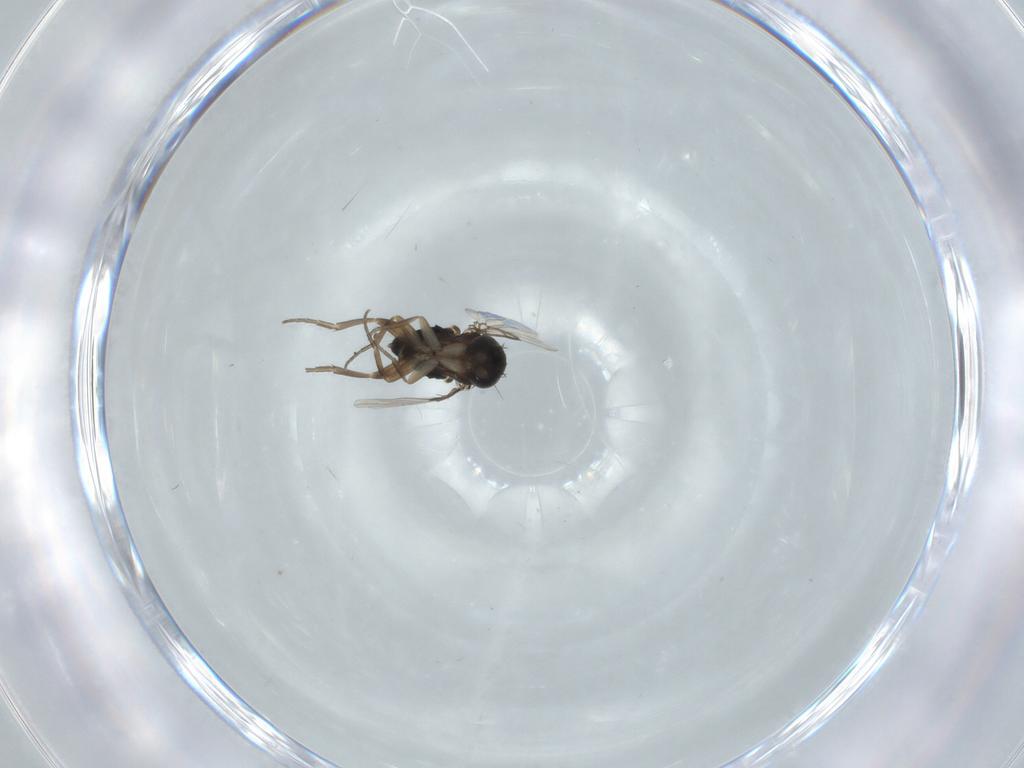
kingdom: Animalia
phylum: Arthropoda
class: Insecta
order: Diptera
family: Phoridae
